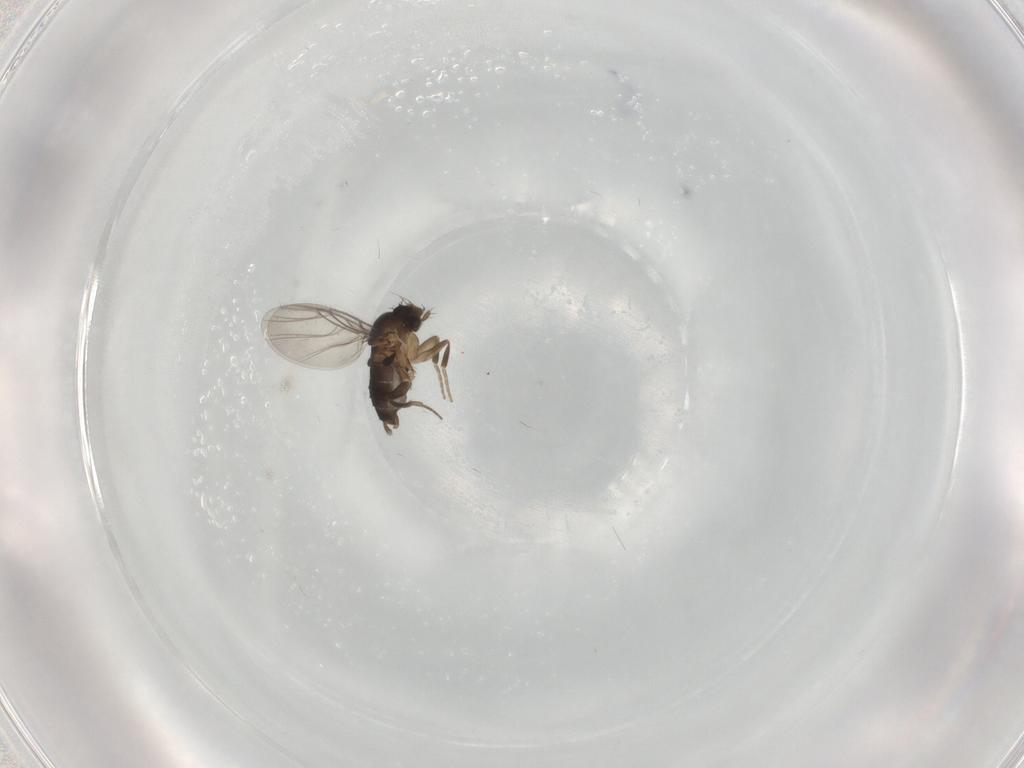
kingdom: Animalia
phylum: Arthropoda
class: Insecta
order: Diptera
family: Phoridae
